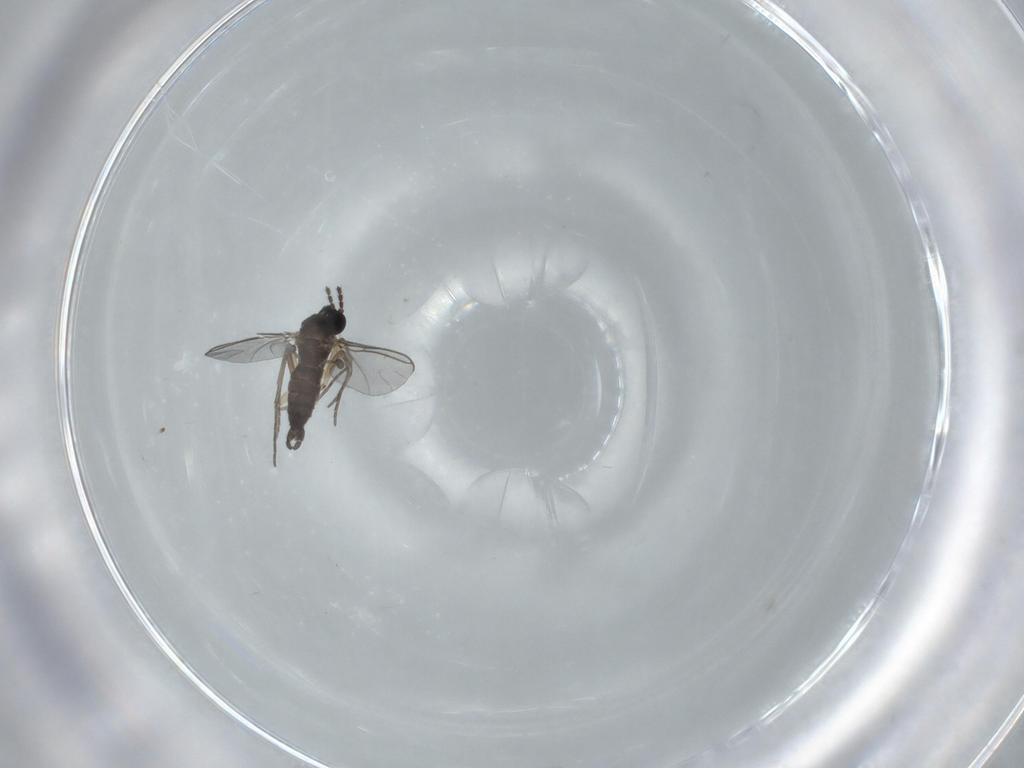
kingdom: Animalia
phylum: Arthropoda
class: Insecta
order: Diptera
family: Sciaridae
